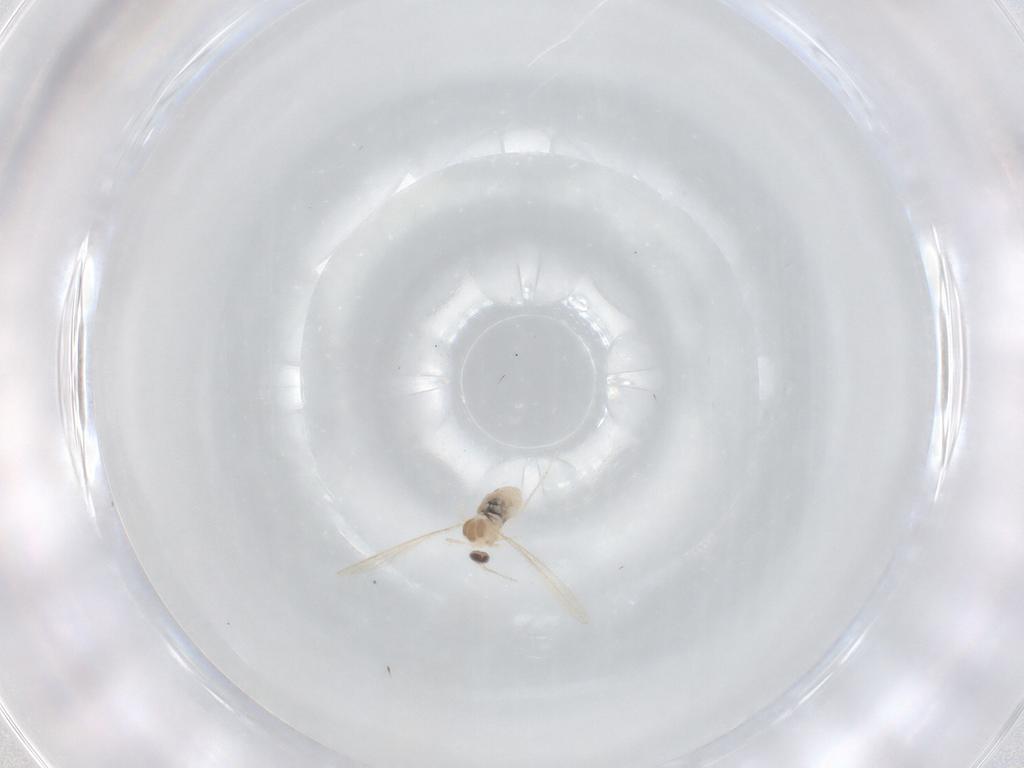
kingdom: Animalia
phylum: Arthropoda
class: Insecta
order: Diptera
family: Cecidomyiidae
